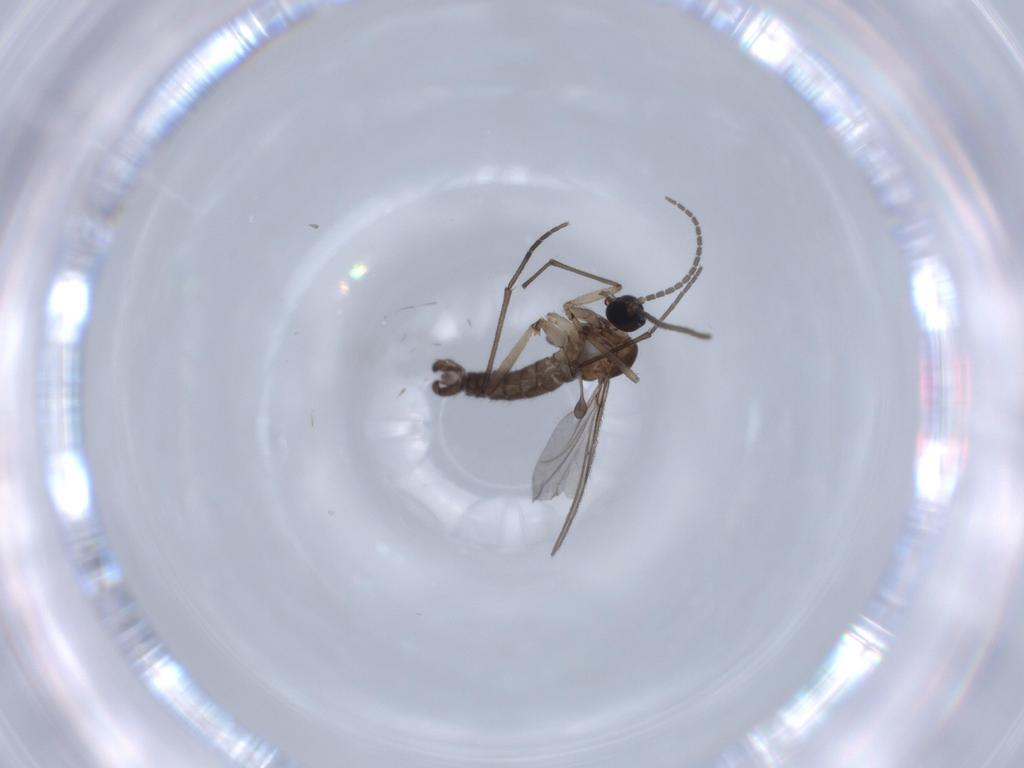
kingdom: Animalia
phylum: Arthropoda
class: Insecta
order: Diptera
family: Sciaridae
